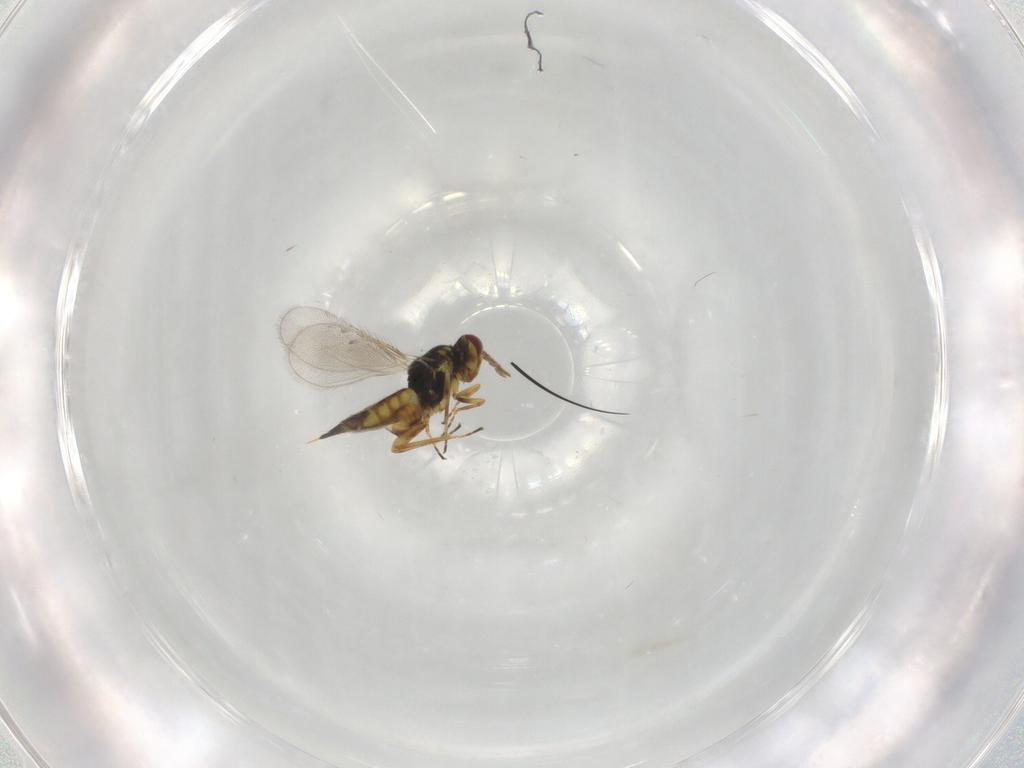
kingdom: Animalia
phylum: Arthropoda
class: Insecta
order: Hymenoptera
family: Eulophidae
